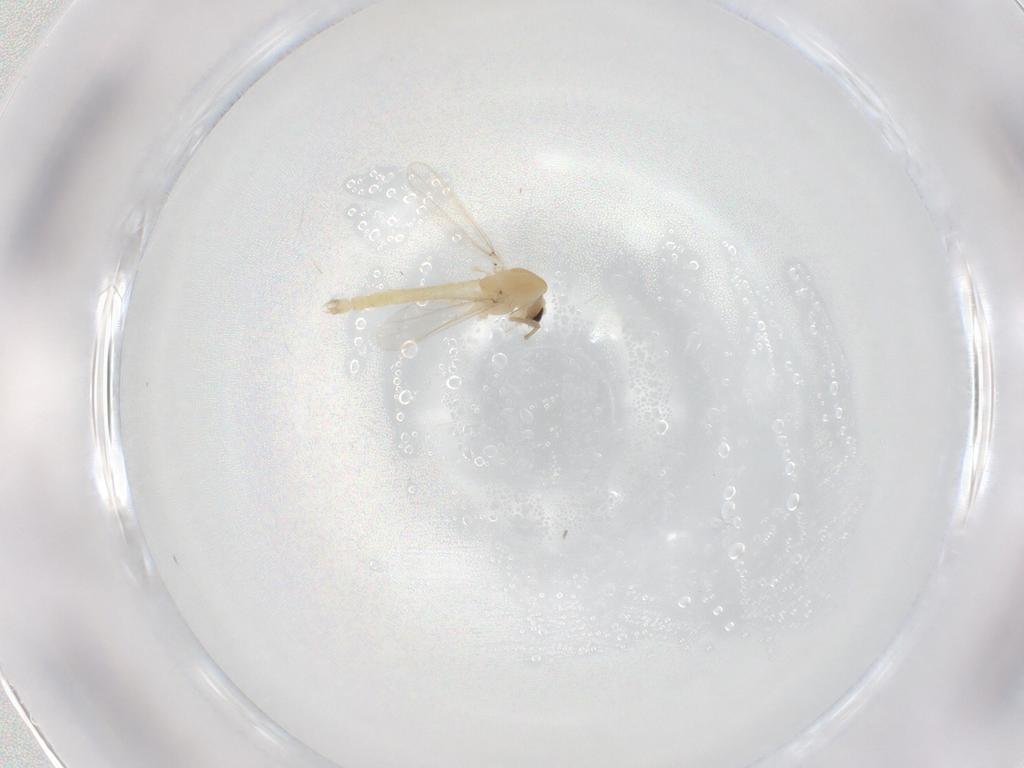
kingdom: Animalia
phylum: Arthropoda
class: Insecta
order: Diptera
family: Chironomidae
